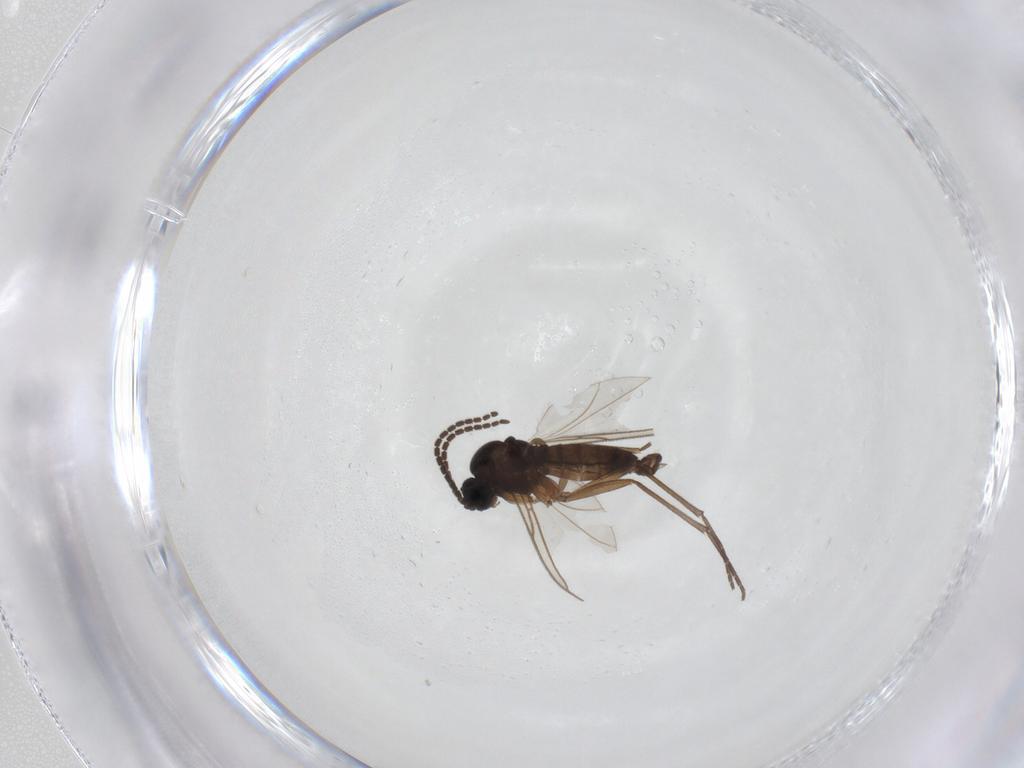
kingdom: Animalia
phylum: Arthropoda
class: Insecta
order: Diptera
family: Sciaridae
